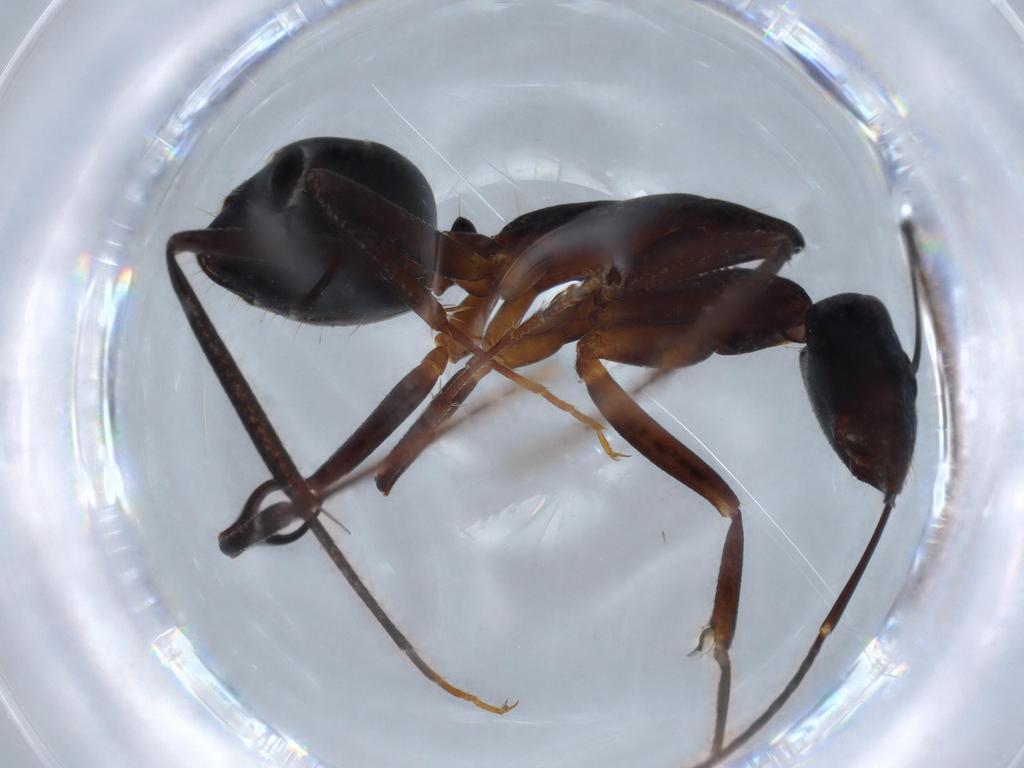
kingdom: Animalia
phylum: Arthropoda
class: Insecta
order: Hymenoptera
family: Formicidae
